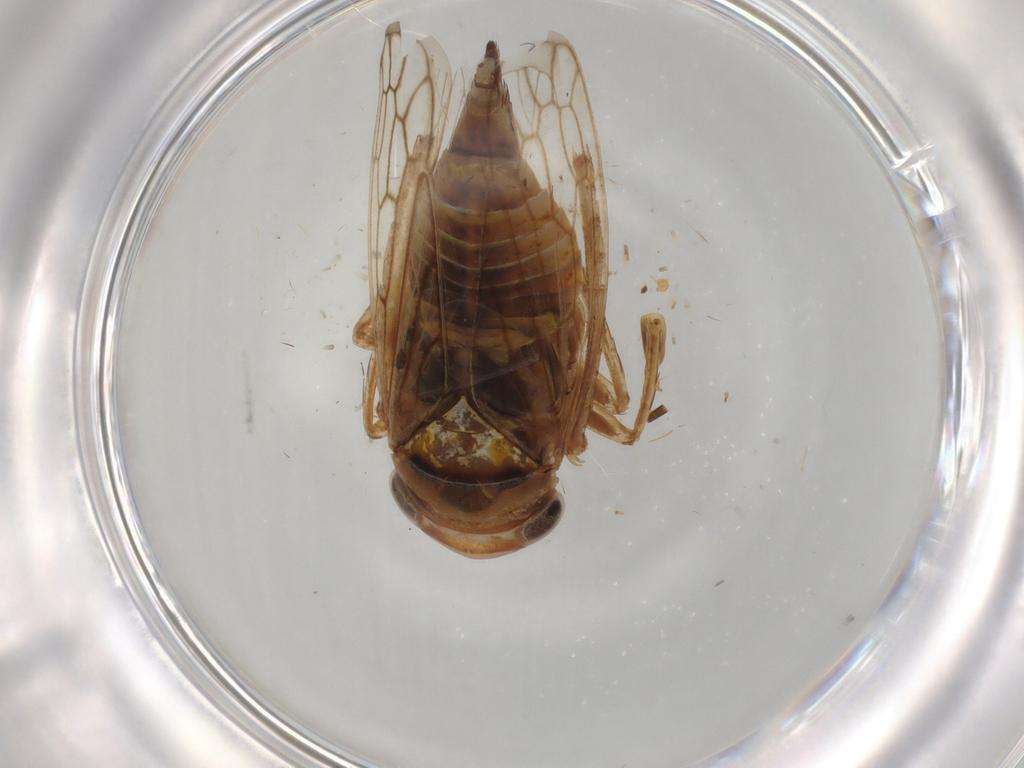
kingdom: Animalia
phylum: Arthropoda
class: Insecta
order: Hemiptera
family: Cicadellidae
